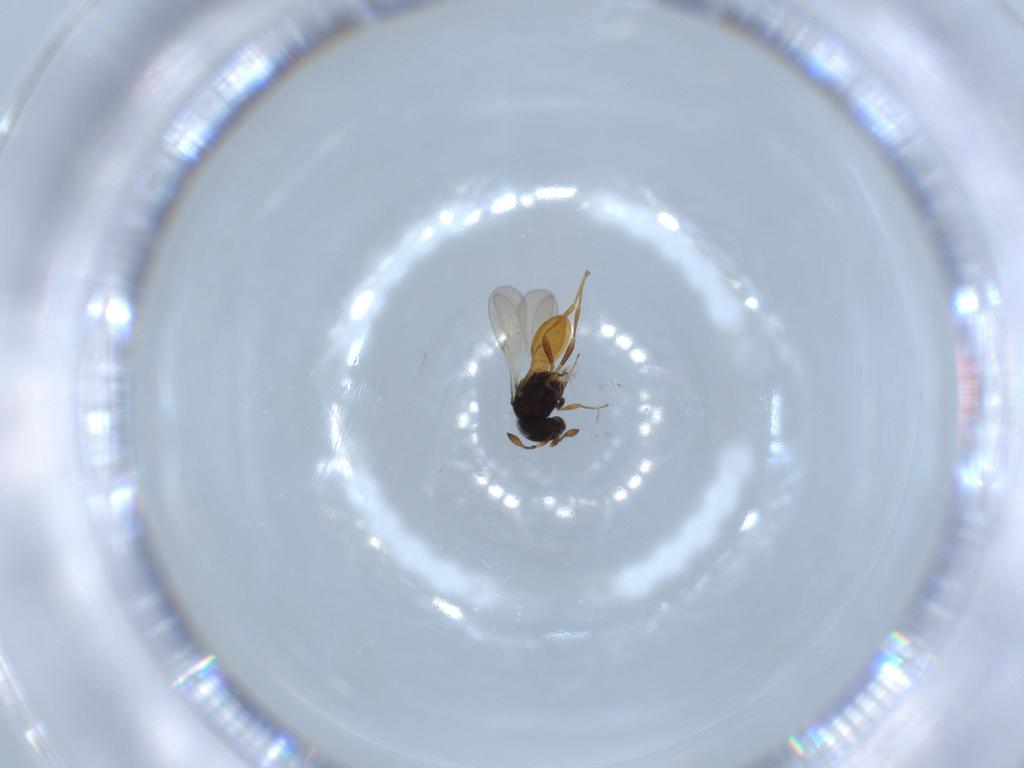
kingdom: Animalia
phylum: Arthropoda
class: Insecta
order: Hymenoptera
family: Scelionidae
